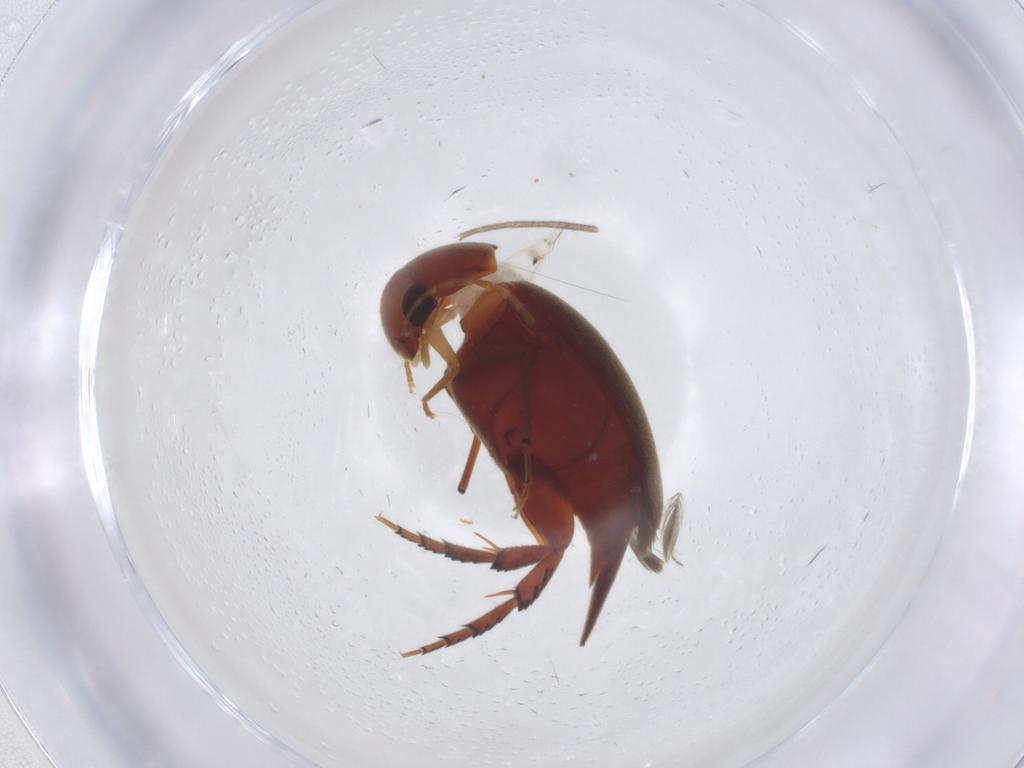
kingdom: Animalia
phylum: Arthropoda
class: Insecta
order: Coleoptera
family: Mordellidae
